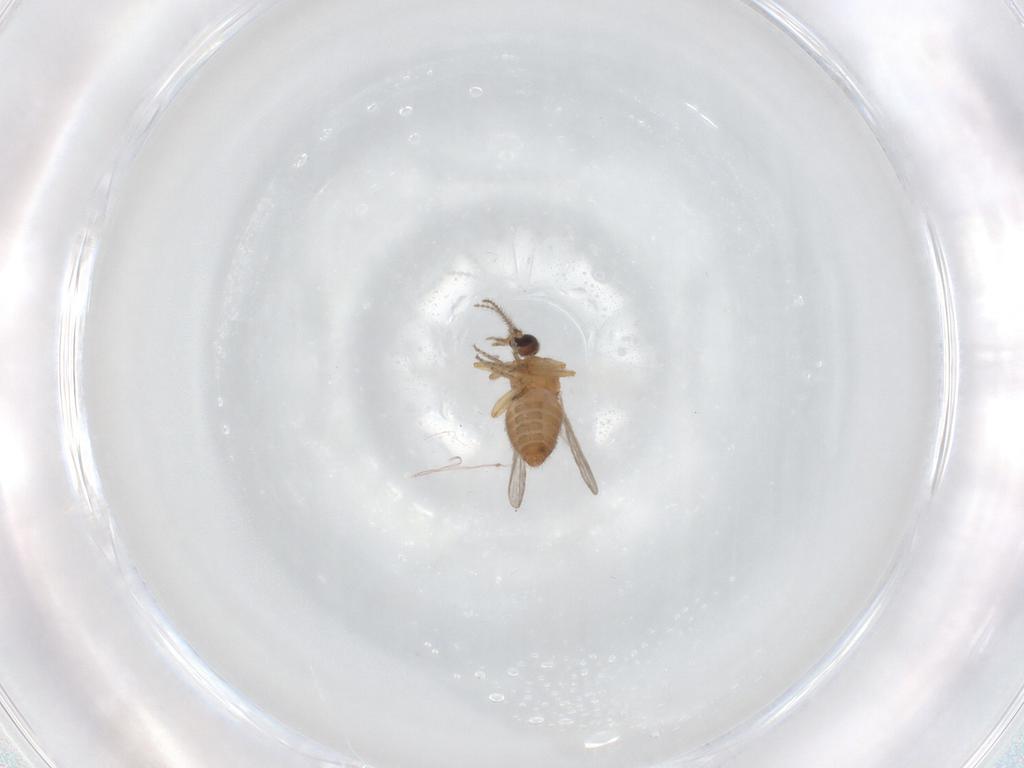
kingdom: Animalia
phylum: Arthropoda
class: Insecta
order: Diptera
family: Ceratopogonidae
